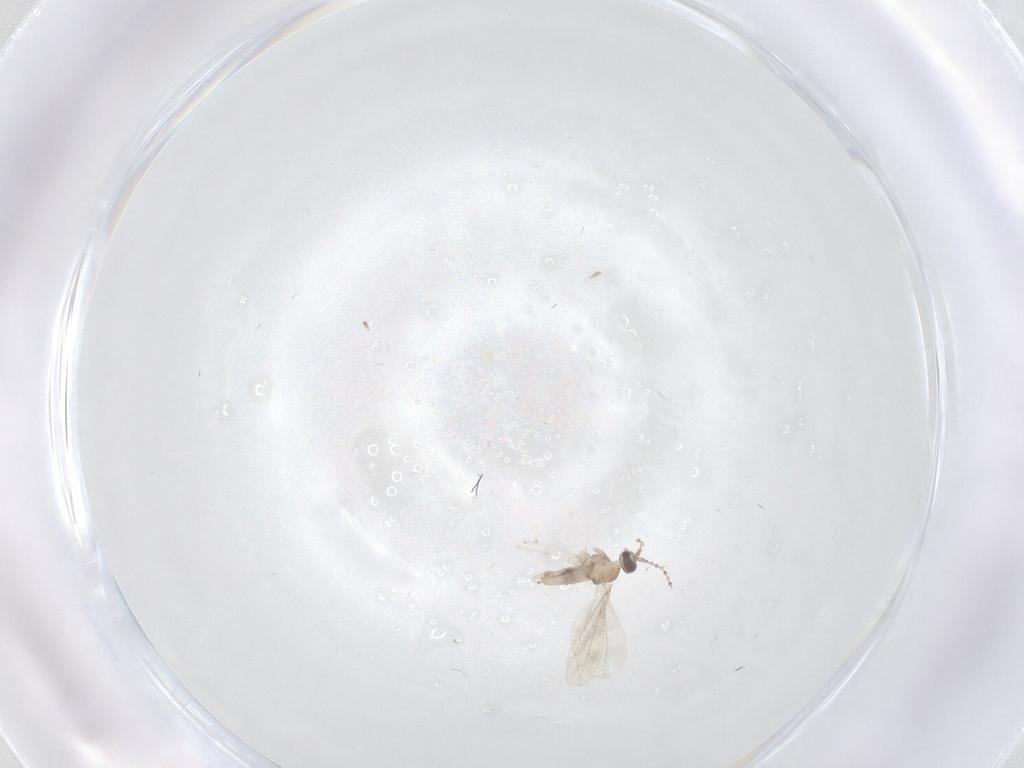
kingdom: Animalia
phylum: Arthropoda
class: Insecta
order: Diptera
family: Cecidomyiidae
